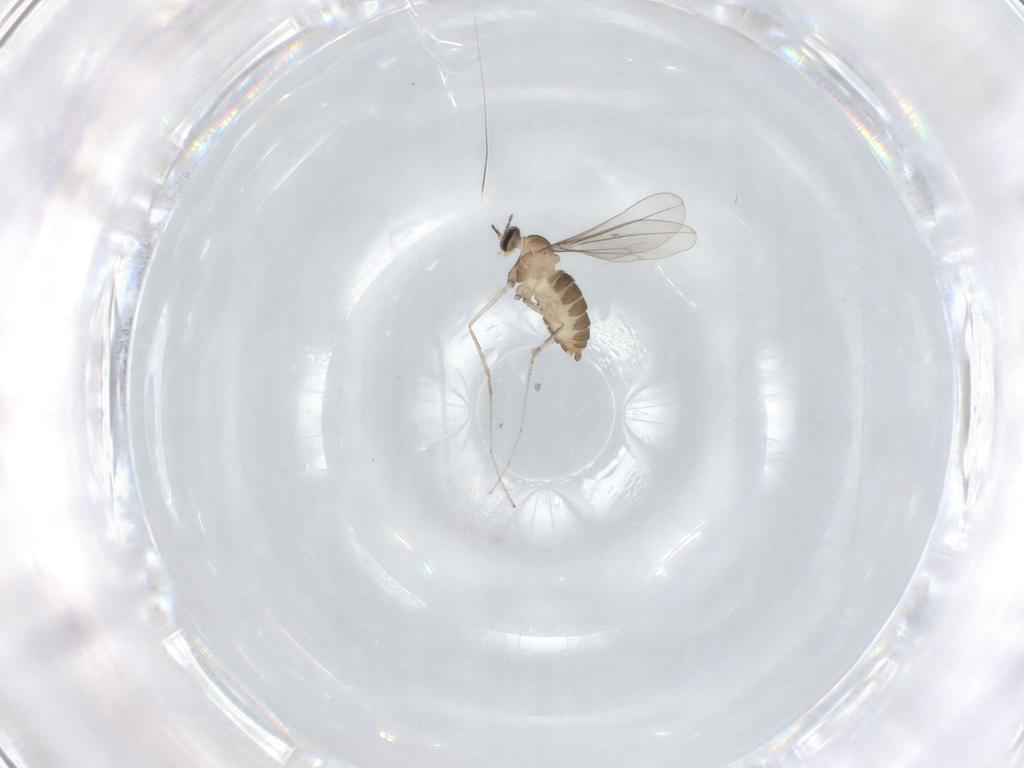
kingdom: Animalia
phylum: Arthropoda
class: Insecta
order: Diptera
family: Cecidomyiidae
